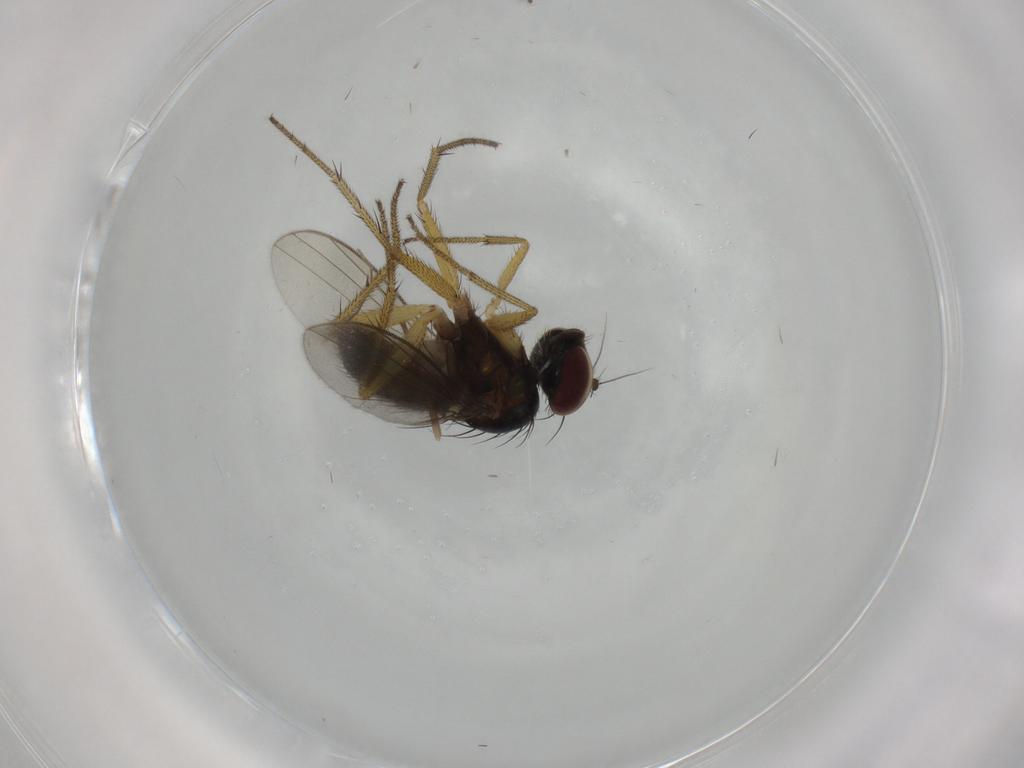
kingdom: Animalia
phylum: Arthropoda
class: Insecta
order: Diptera
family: Dolichopodidae
